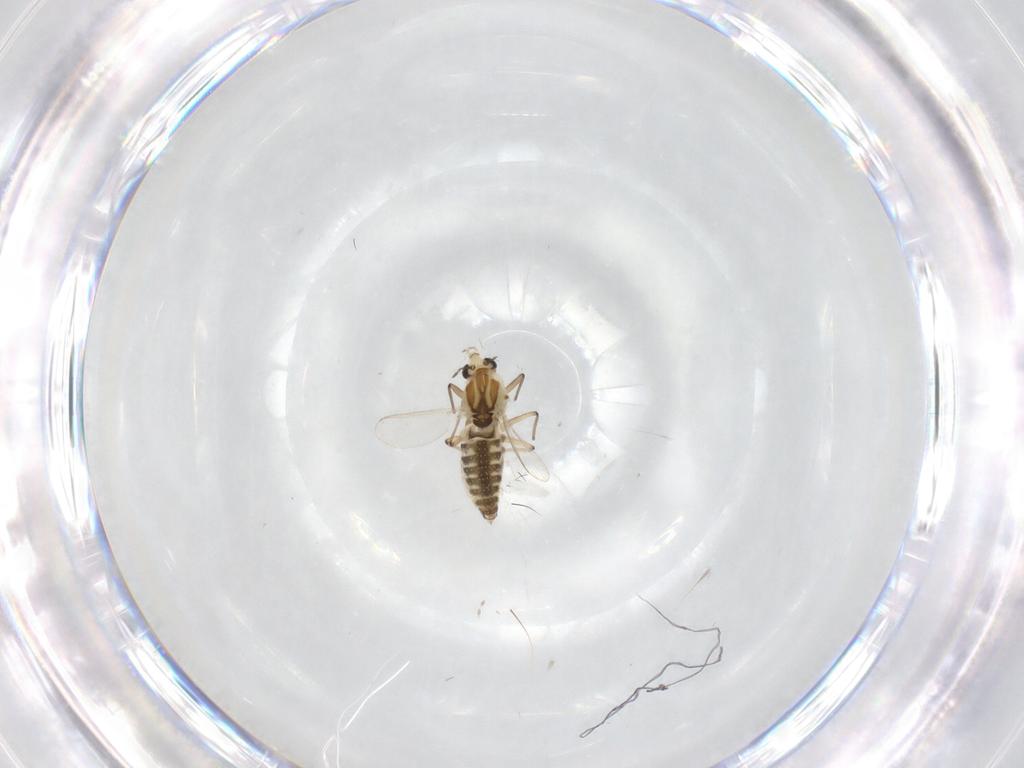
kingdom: Animalia
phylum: Arthropoda
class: Insecta
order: Diptera
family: Chironomidae
